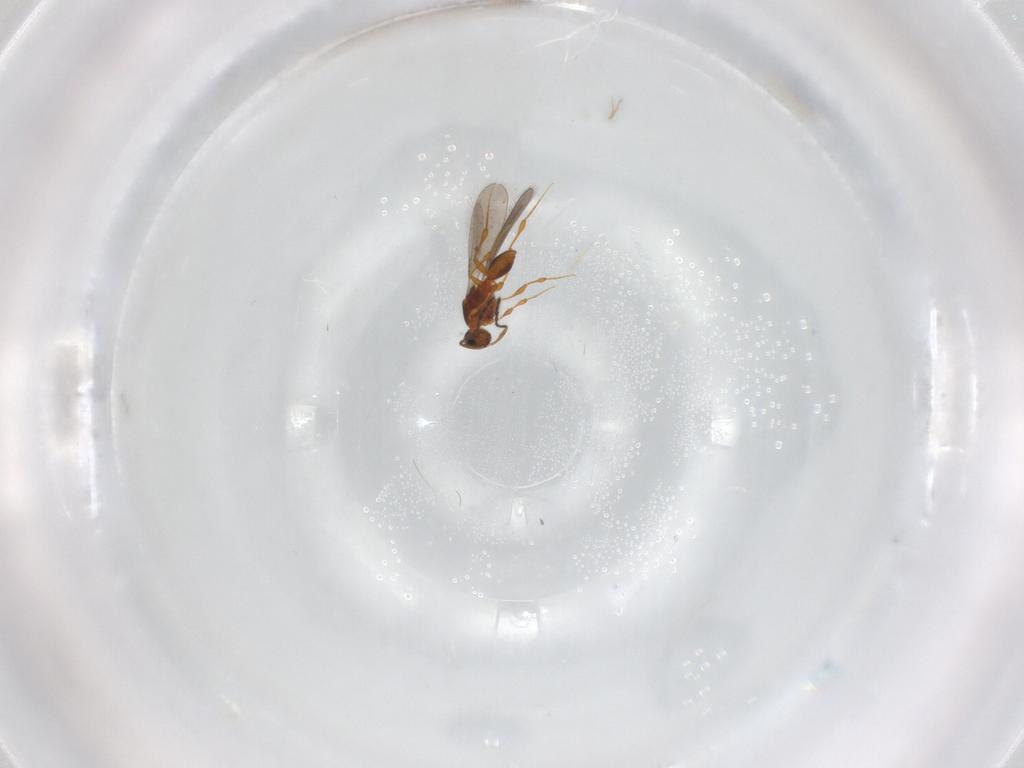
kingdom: Animalia
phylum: Arthropoda
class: Insecta
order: Hymenoptera
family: Platygastridae
